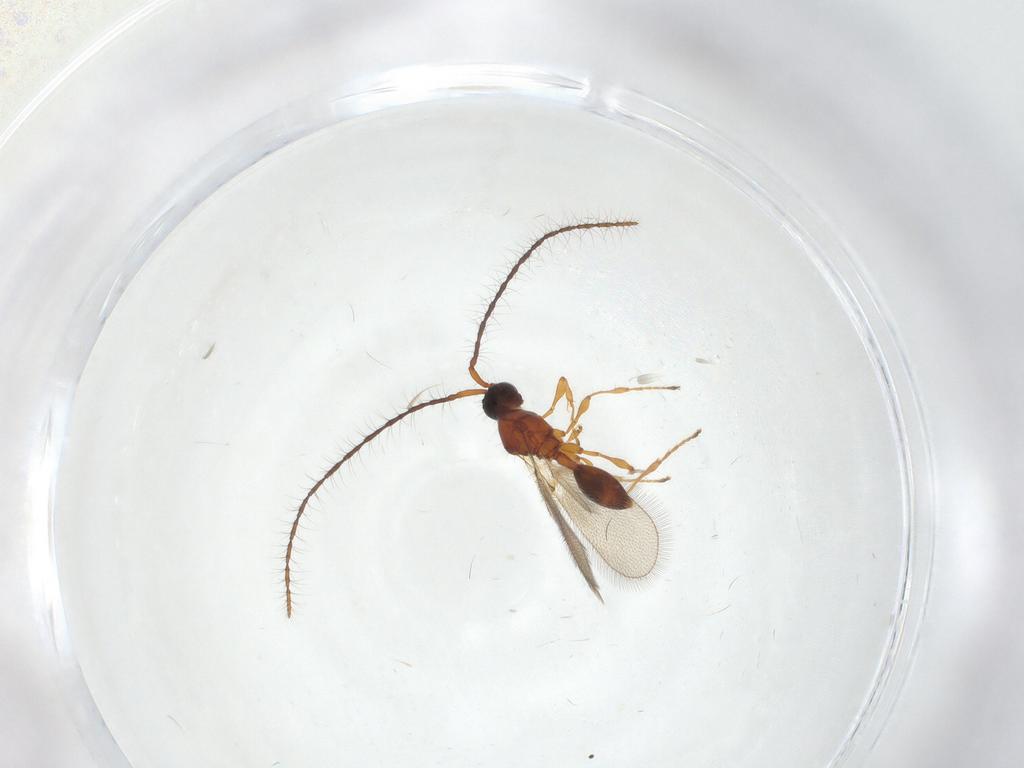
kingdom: Animalia
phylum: Arthropoda
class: Insecta
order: Hymenoptera
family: Diapriidae
